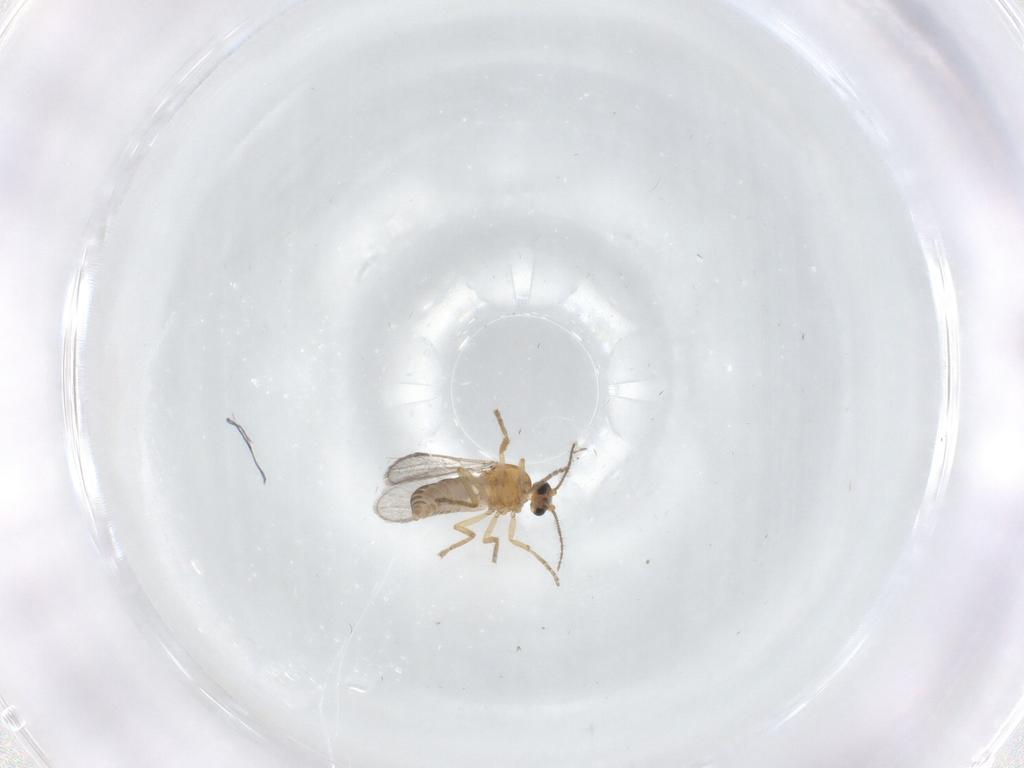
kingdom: Animalia
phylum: Arthropoda
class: Insecta
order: Diptera
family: Ceratopogonidae
